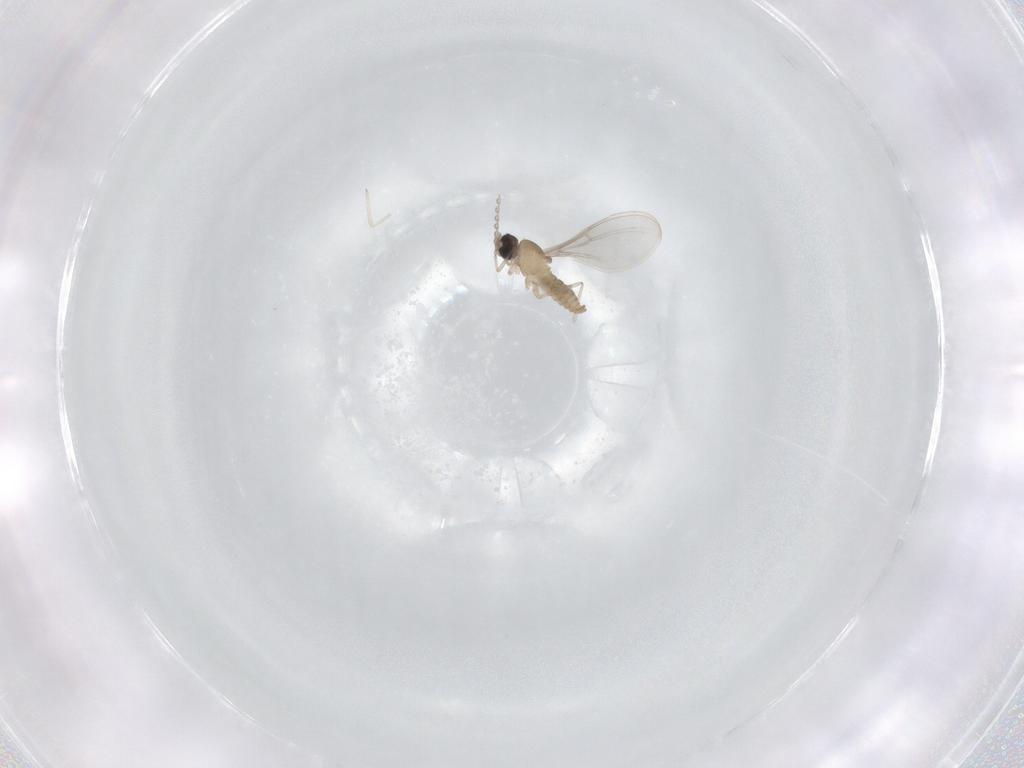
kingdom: Animalia
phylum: Arthropoda
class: Insecta
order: Diptera
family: Cecidomyiidae
